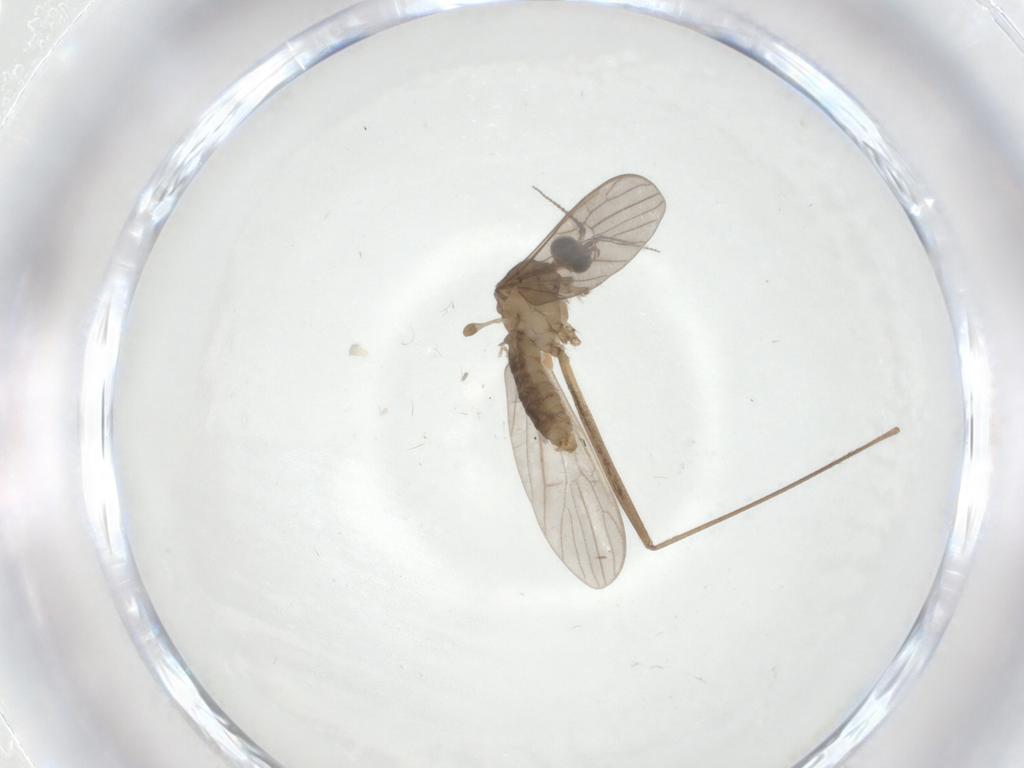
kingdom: Animalia
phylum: Arthropoda
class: Insecta
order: Diptera
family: Limoniidae
